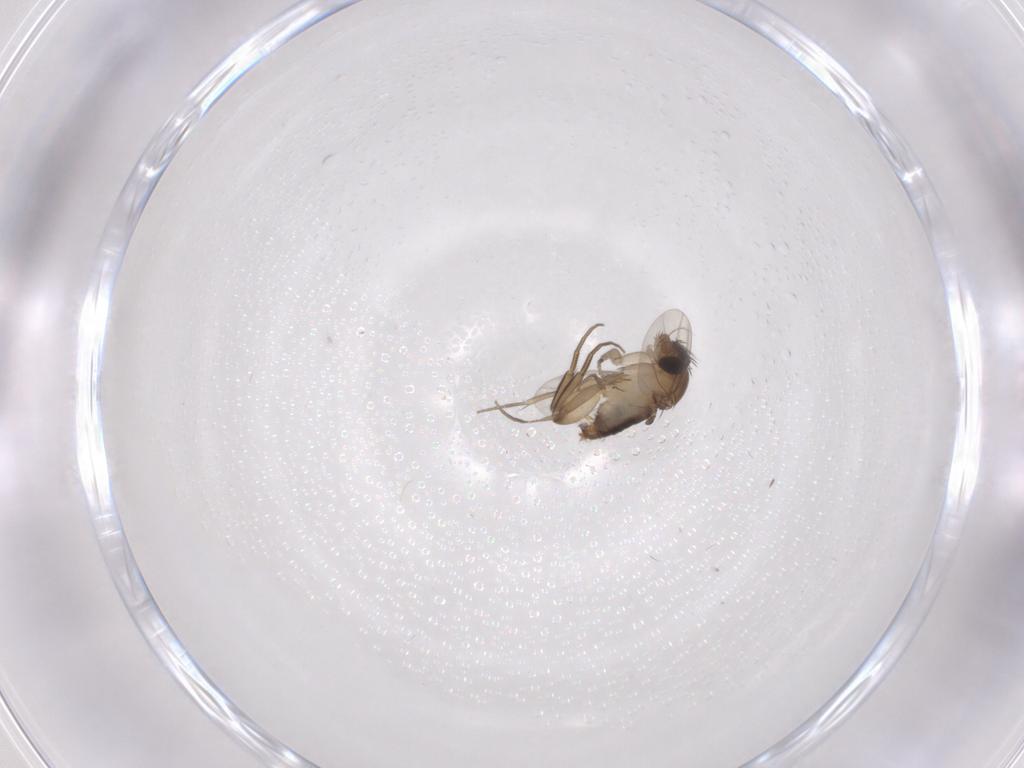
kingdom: Animalia
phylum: Arthropoda
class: Insecta
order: Diptera
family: Phoridae
